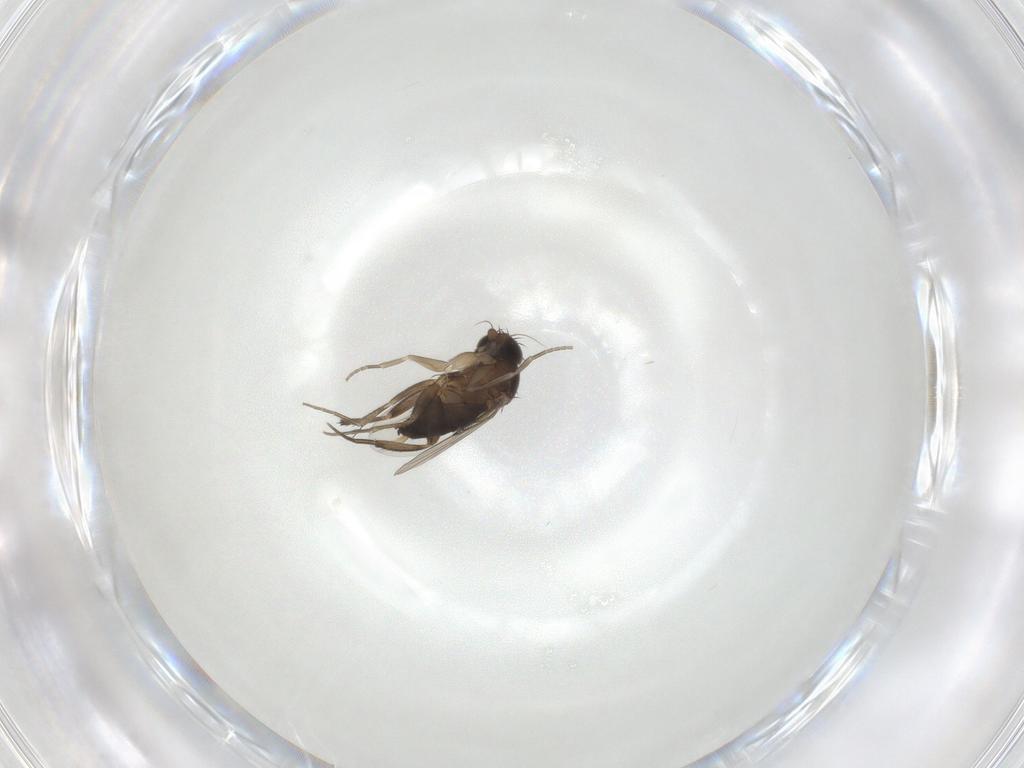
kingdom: Animalia
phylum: Arthropoda
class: Insecta
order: Diptera
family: Phoridae
